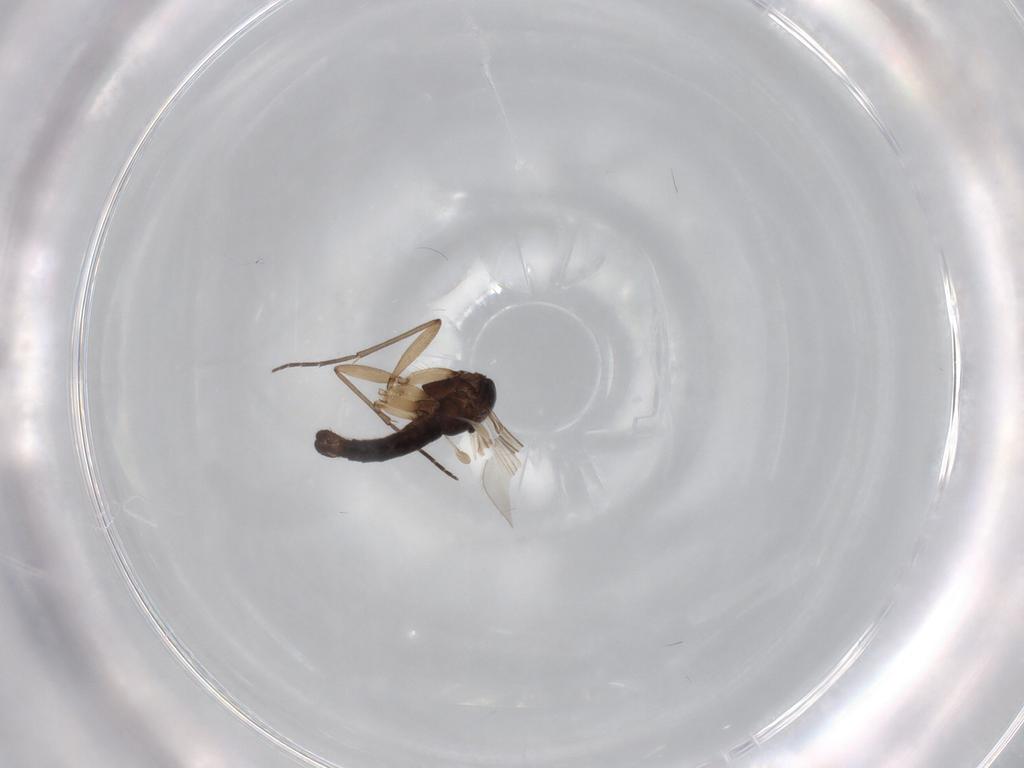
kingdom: Animalia
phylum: Arthropoda
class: Insecta
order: Diptera
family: Sciaridae
